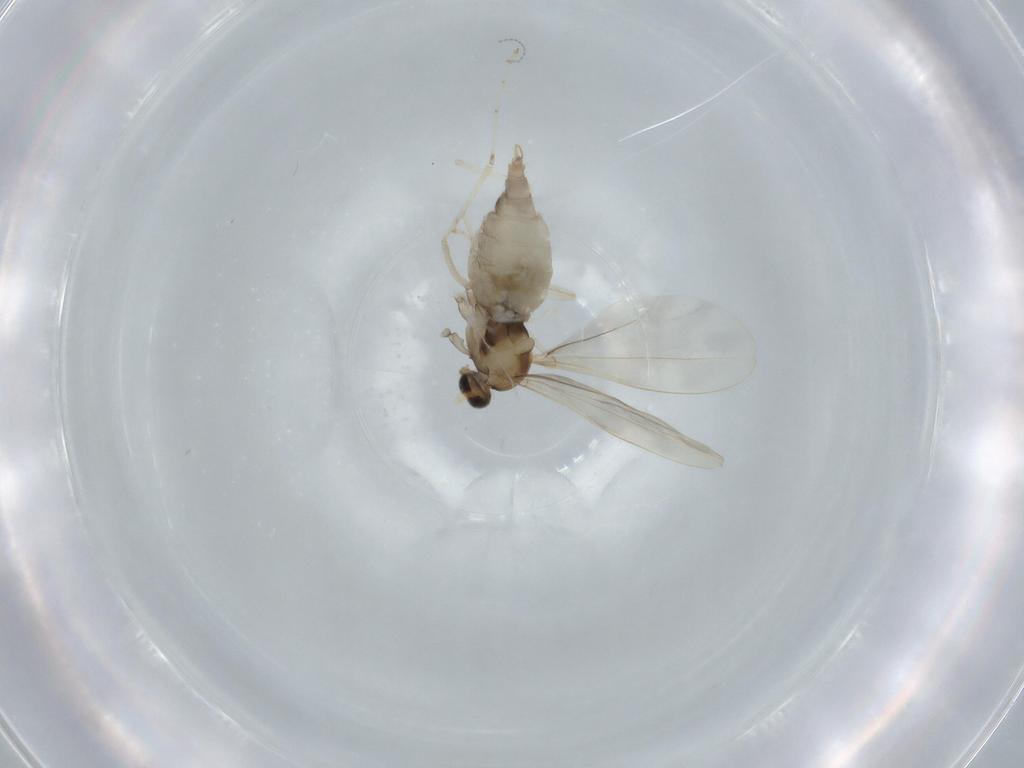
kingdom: Animalia
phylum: Arthropoda
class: Insecta
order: Diptera
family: Cecidomyiidae
